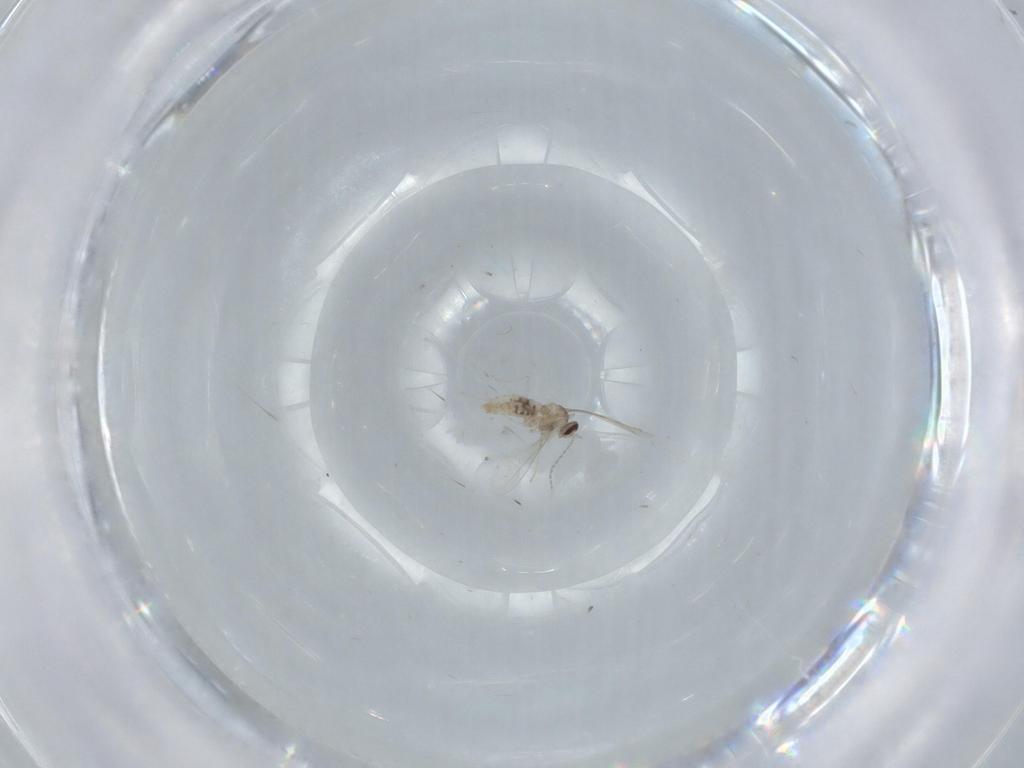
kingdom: Animalia
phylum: Arthropoda
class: Insecta
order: Diptera
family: Cecidomyiidae
